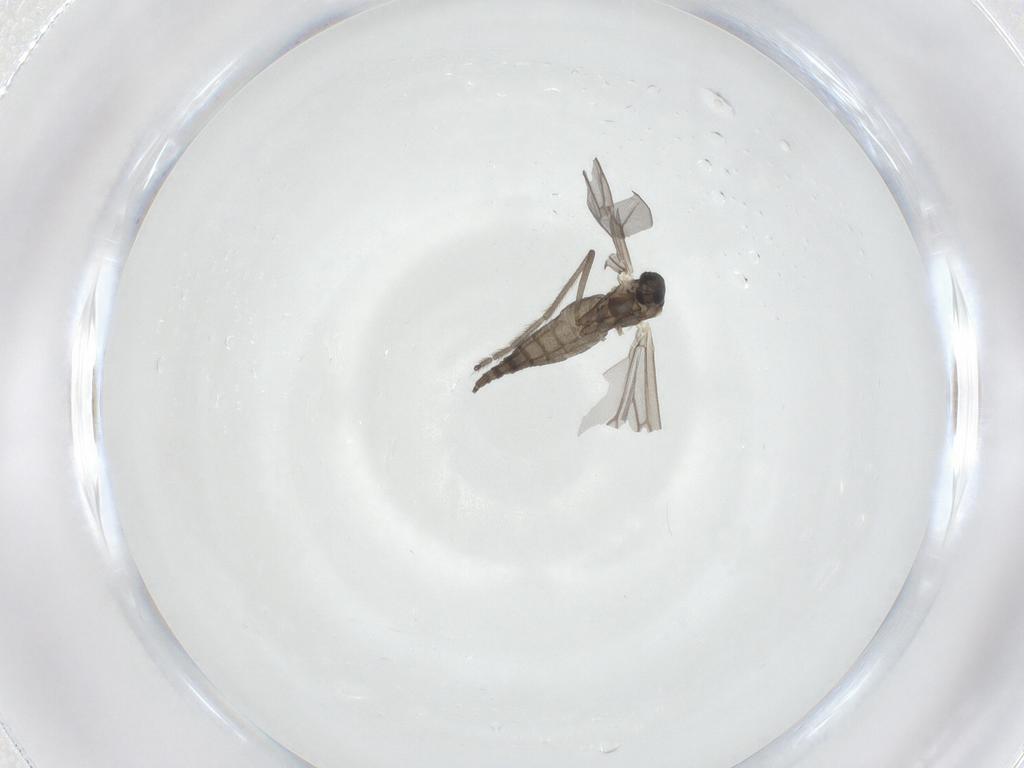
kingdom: Animalia
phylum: Arthropoda
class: Insecta
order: Diptera
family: Cecidomyiidae
